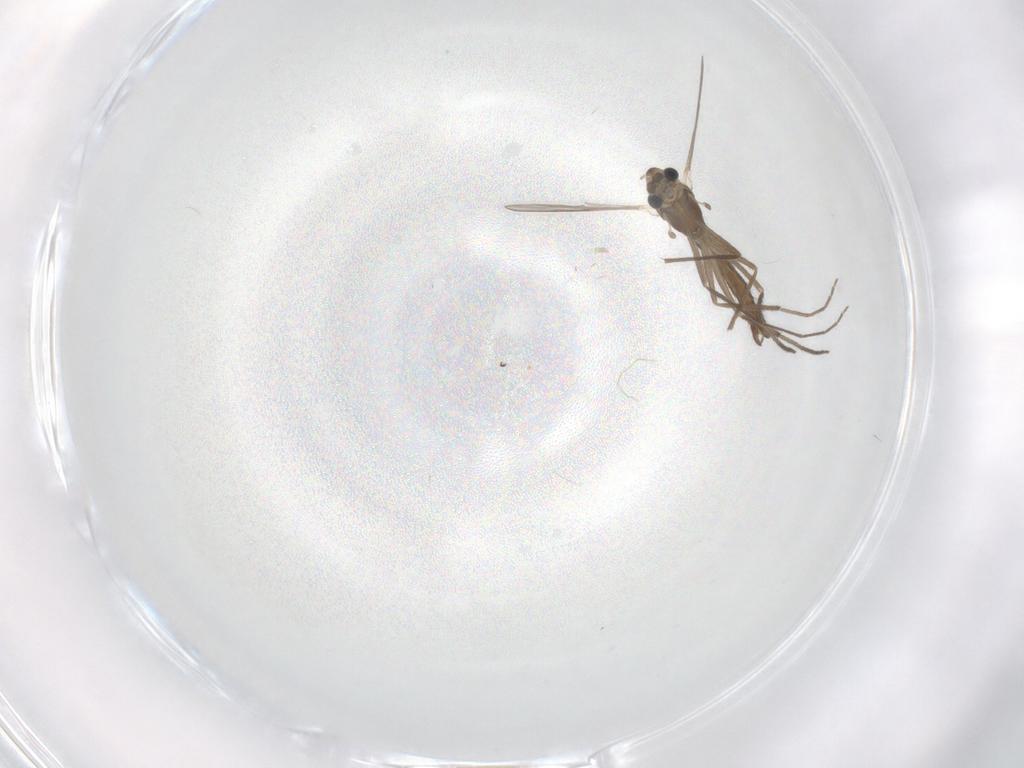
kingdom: Animalia
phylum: Arthropoda
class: Insecta
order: Diptera
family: Chironomidae
